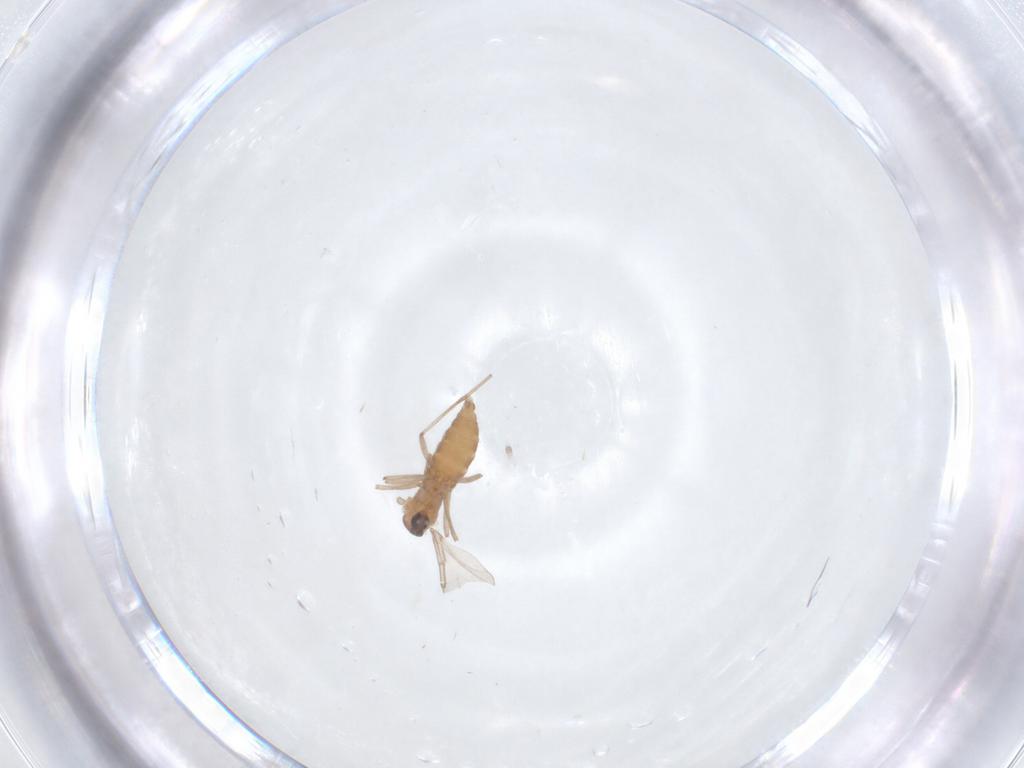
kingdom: Animalia
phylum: Arthropoda
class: Insecta
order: Diptera
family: Cecidomyiidae
